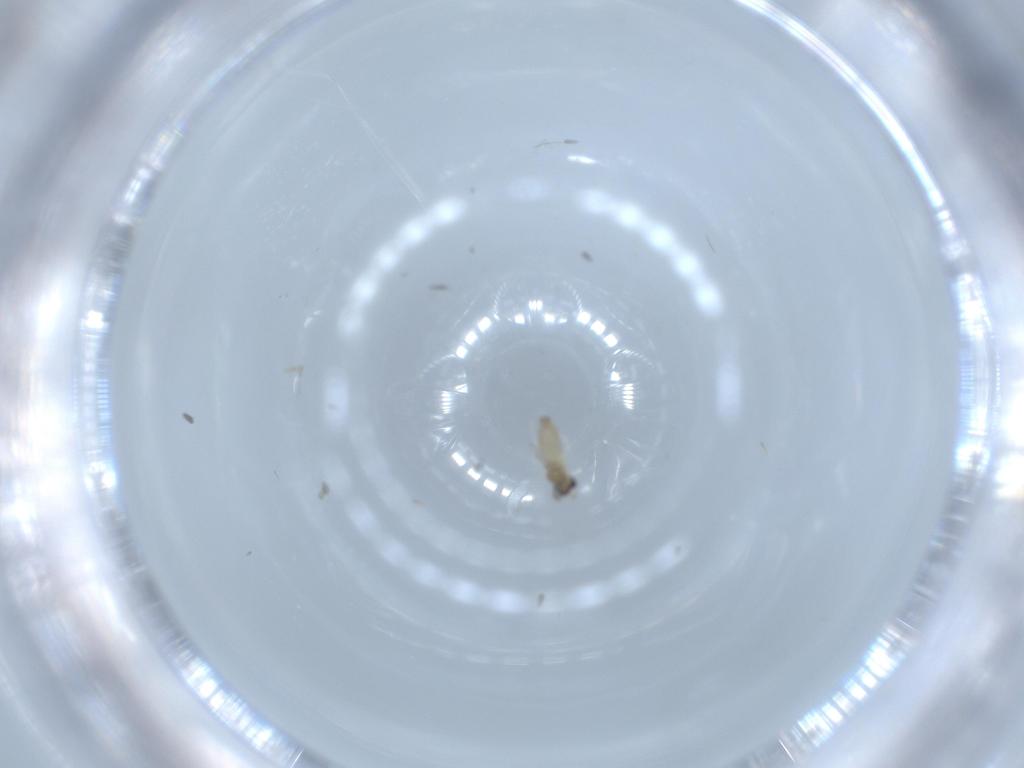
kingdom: Animalia
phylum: Arthropoda
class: Insecta
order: Diptera
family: Cecidomyiidae
